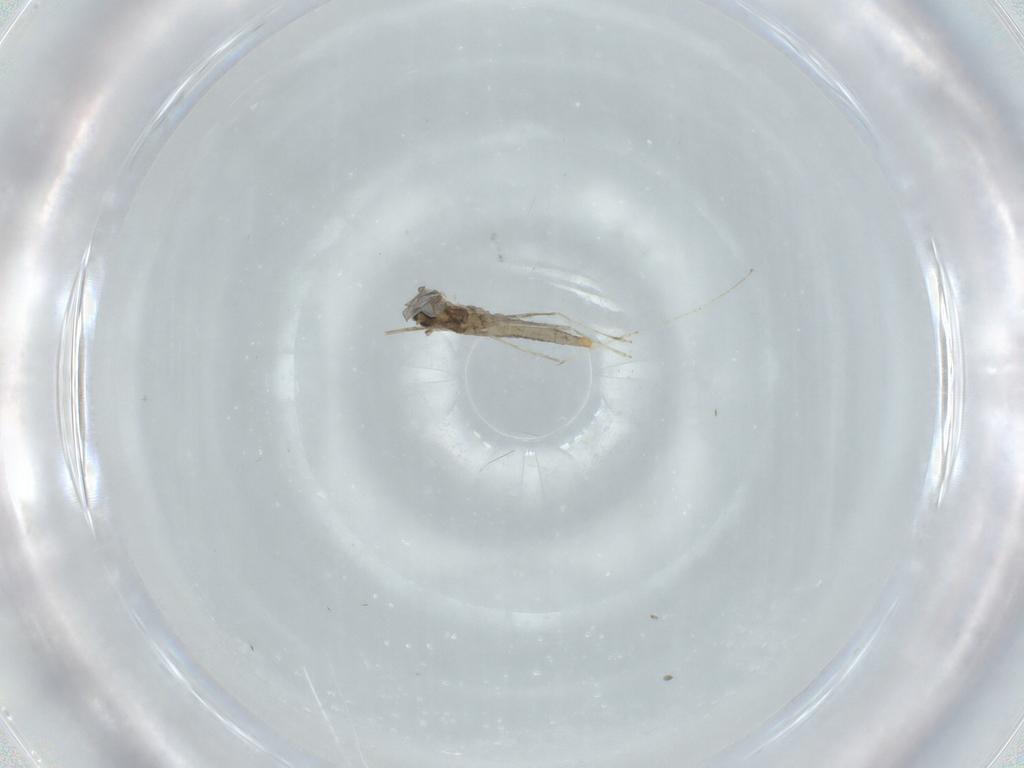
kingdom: Animalia
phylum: Arthropoda
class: Insecta
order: Diptera
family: Cecidomyiidae
